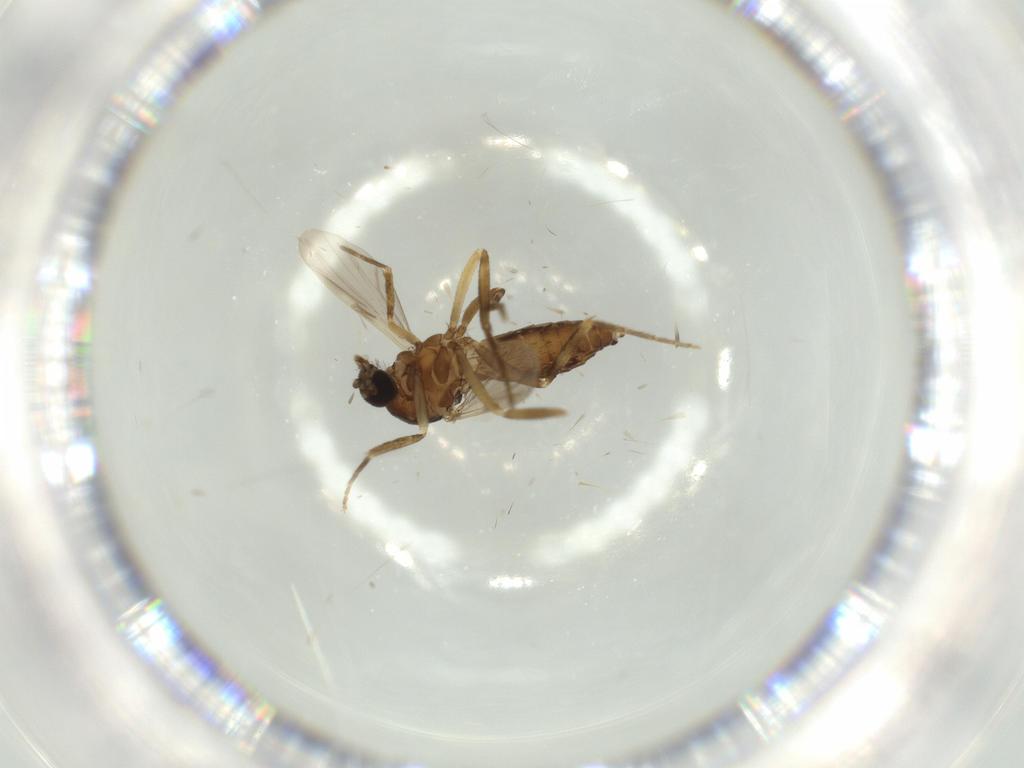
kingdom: Animalia
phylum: Arthropoda
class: Insecta
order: Diptera
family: Ceratopogonidae
